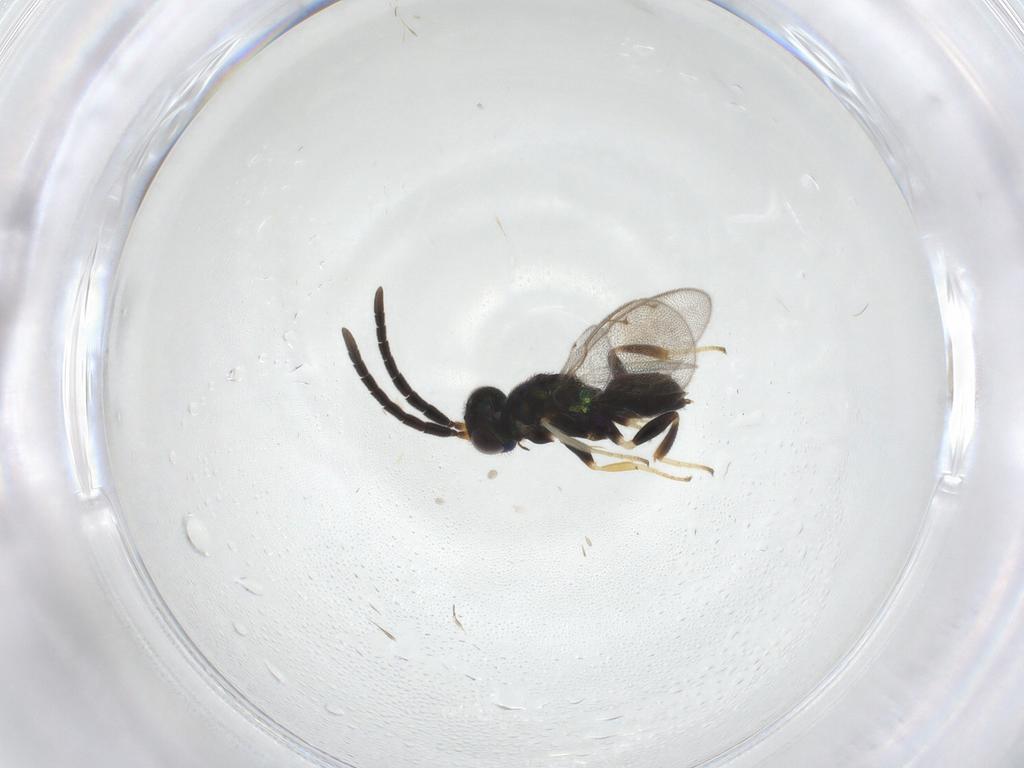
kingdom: Animalia
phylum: Arthropoda
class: Insecta
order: Hymenoptera
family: Eupelmidae
